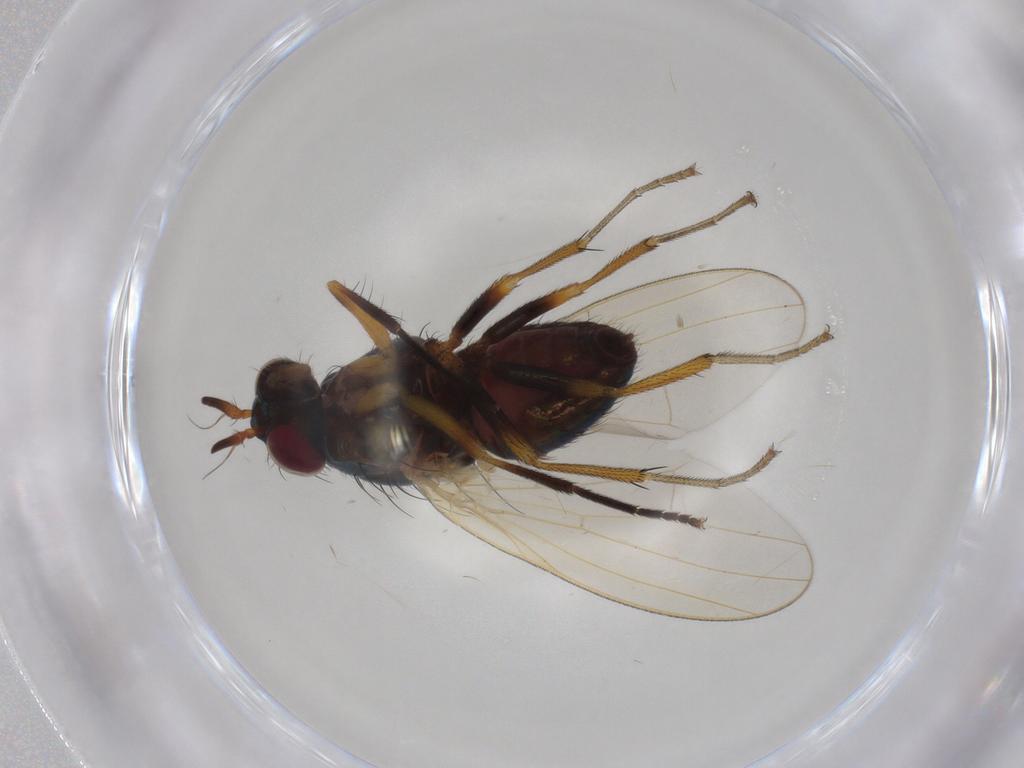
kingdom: Animalia
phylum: Arthropoda
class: Insecta
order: Diptera
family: Lauxaniidae
